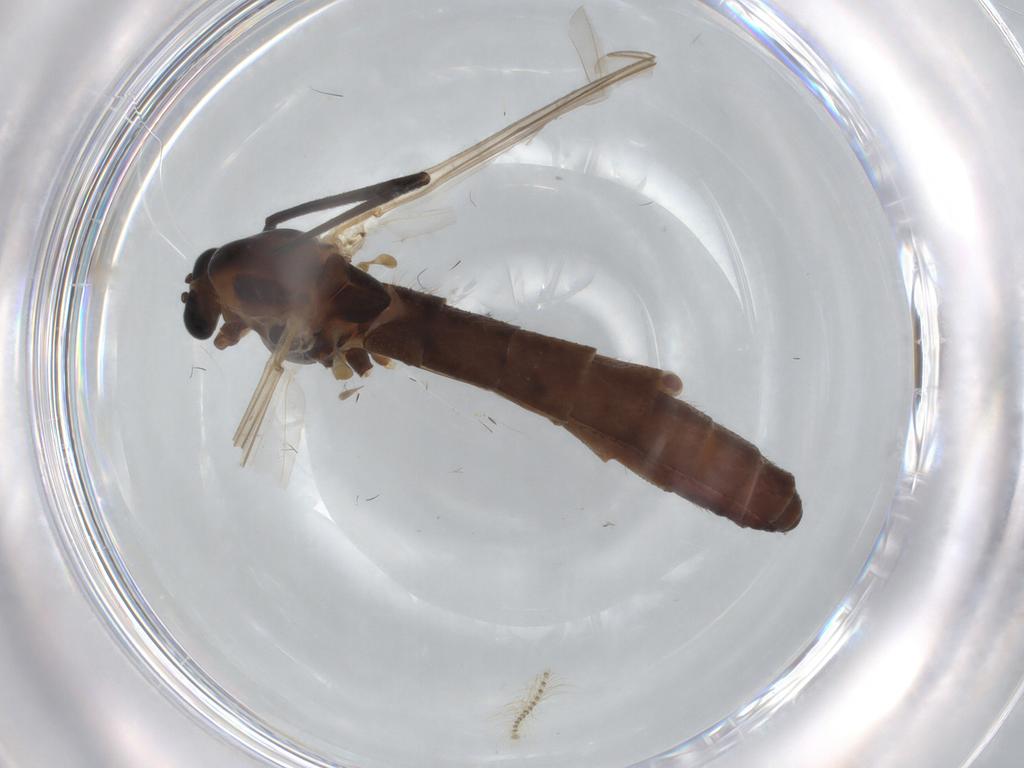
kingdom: Animalia
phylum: Arthropoda
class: Insecta
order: Diptera
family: Chironomidae
